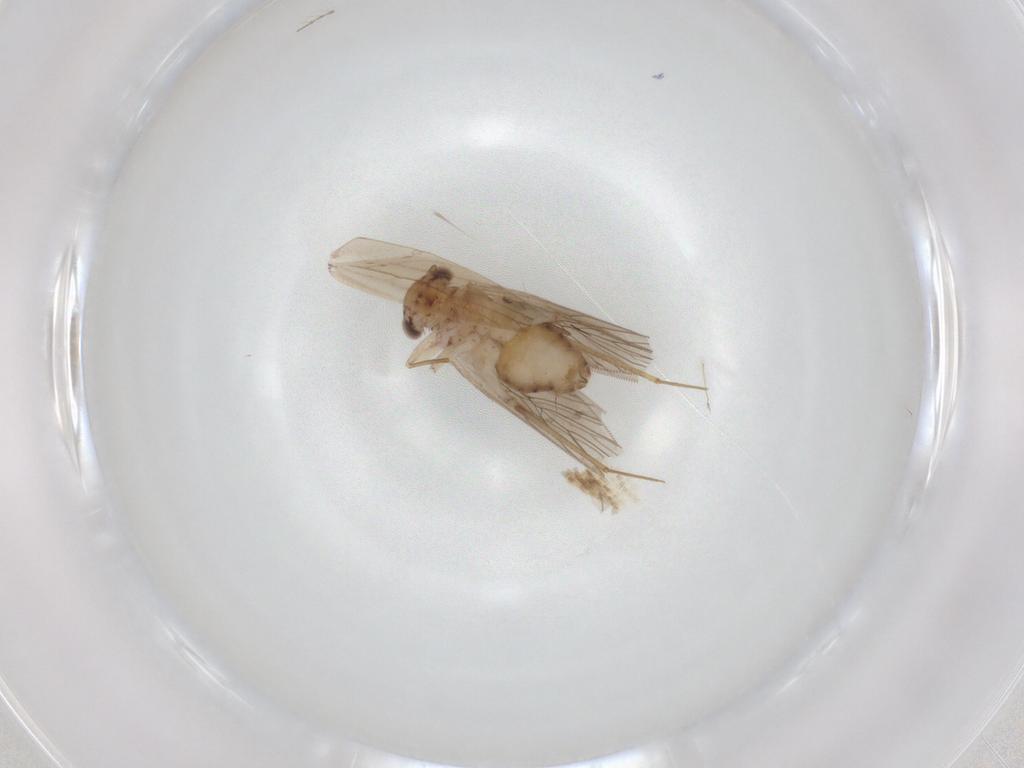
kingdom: Animalia
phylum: Arthropoda
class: Insecta
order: Psocodea
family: Lepidopsocidae
